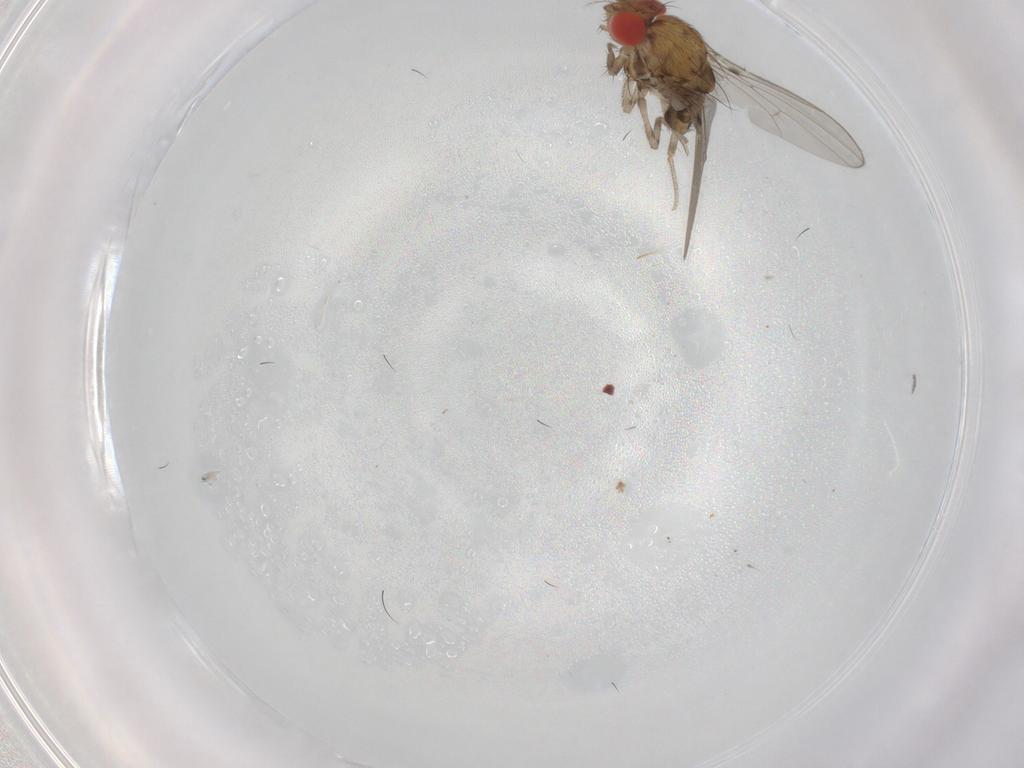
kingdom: Animalia
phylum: Arthropoda
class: Insecta
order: Diptera
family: Drosophilidae
